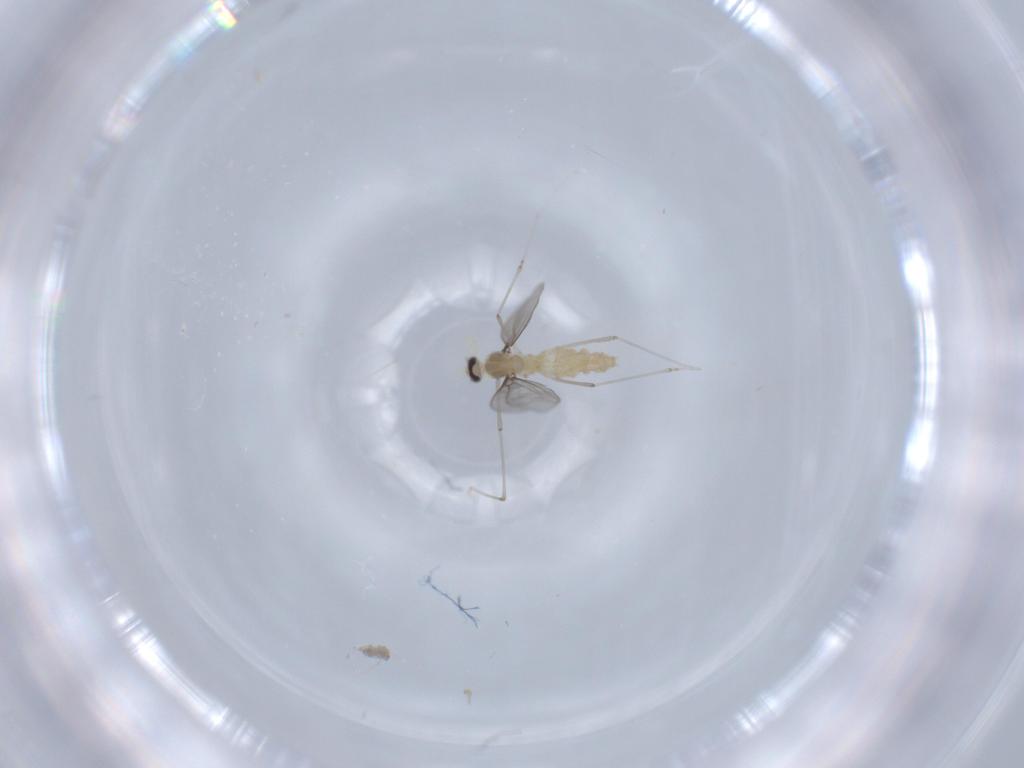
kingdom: Animalia
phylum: Arthropoda
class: Insecta
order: Diptera
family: Cecidomyiidae
